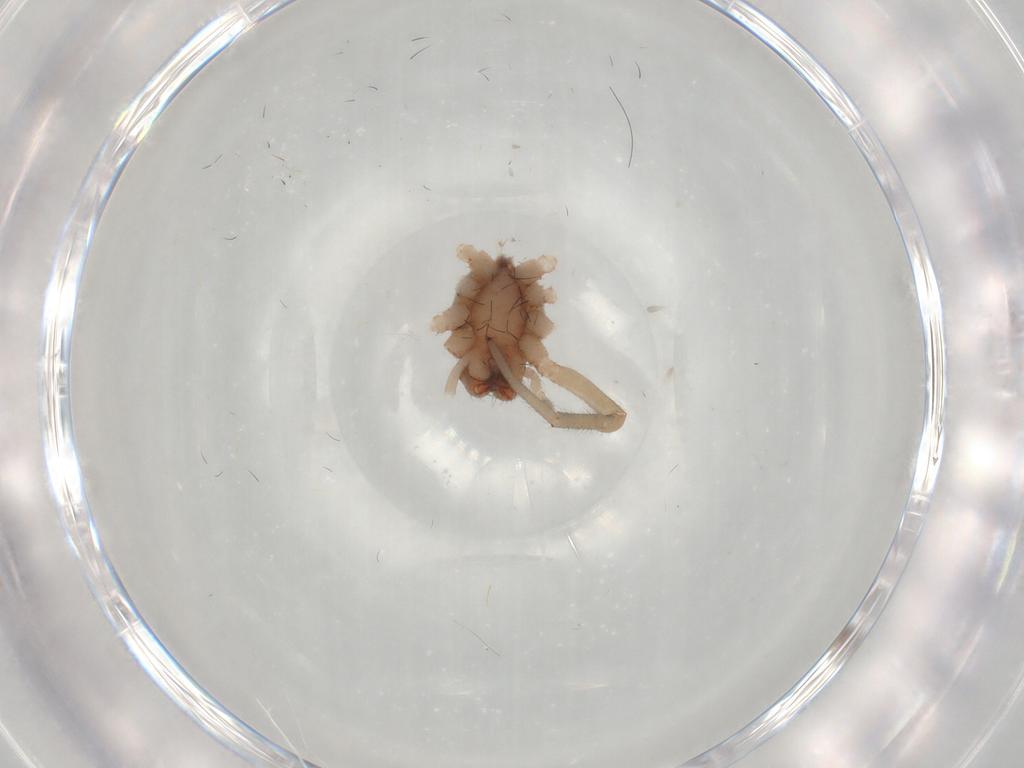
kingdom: Animalia
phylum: Arthropoda
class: Arachnida
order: Araneae
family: Trachelidae
